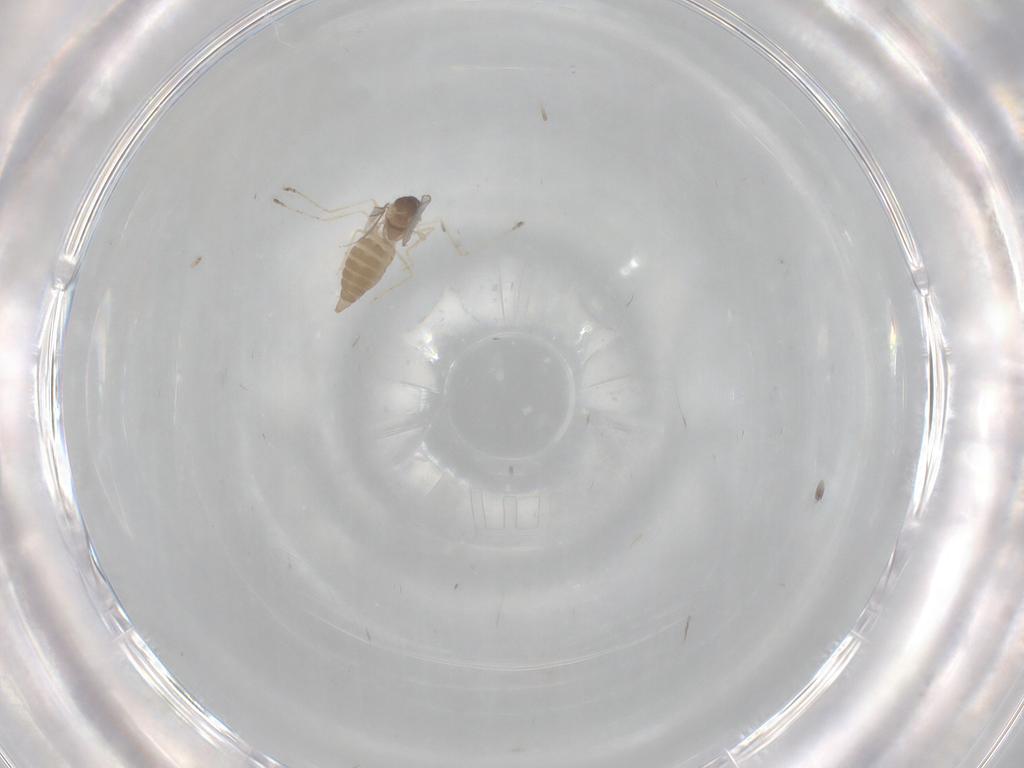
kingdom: Animalia
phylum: Arthropoda
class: Insecta
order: Diptera
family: Cecidomyiidae
